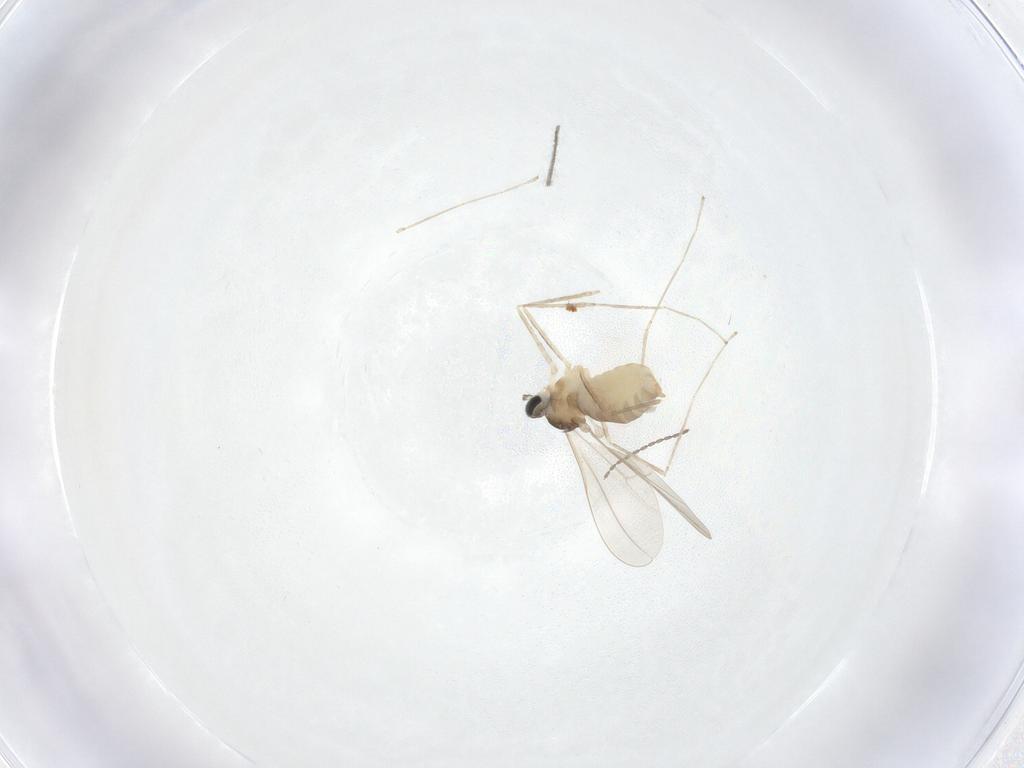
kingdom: Animalia
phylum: Arthropoda
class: Insecta
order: Diptera
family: Cecidomyiidae
